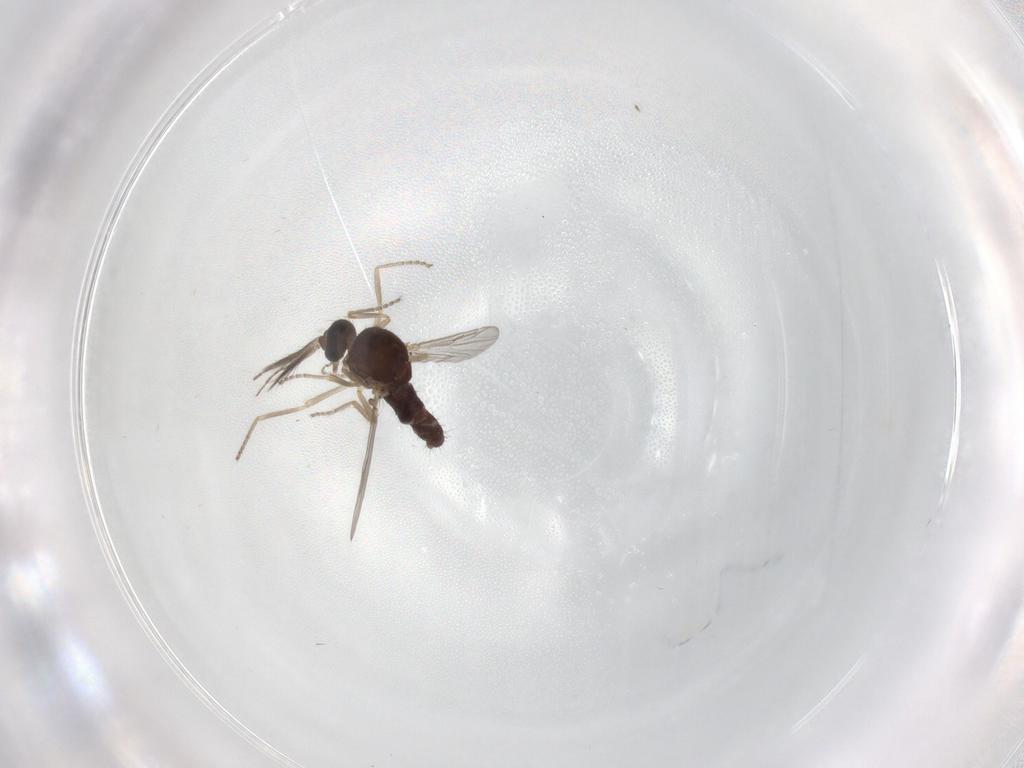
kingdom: Animalia
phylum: Arthropoda
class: Insecta
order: Diptera
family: Ceratopogonidae
